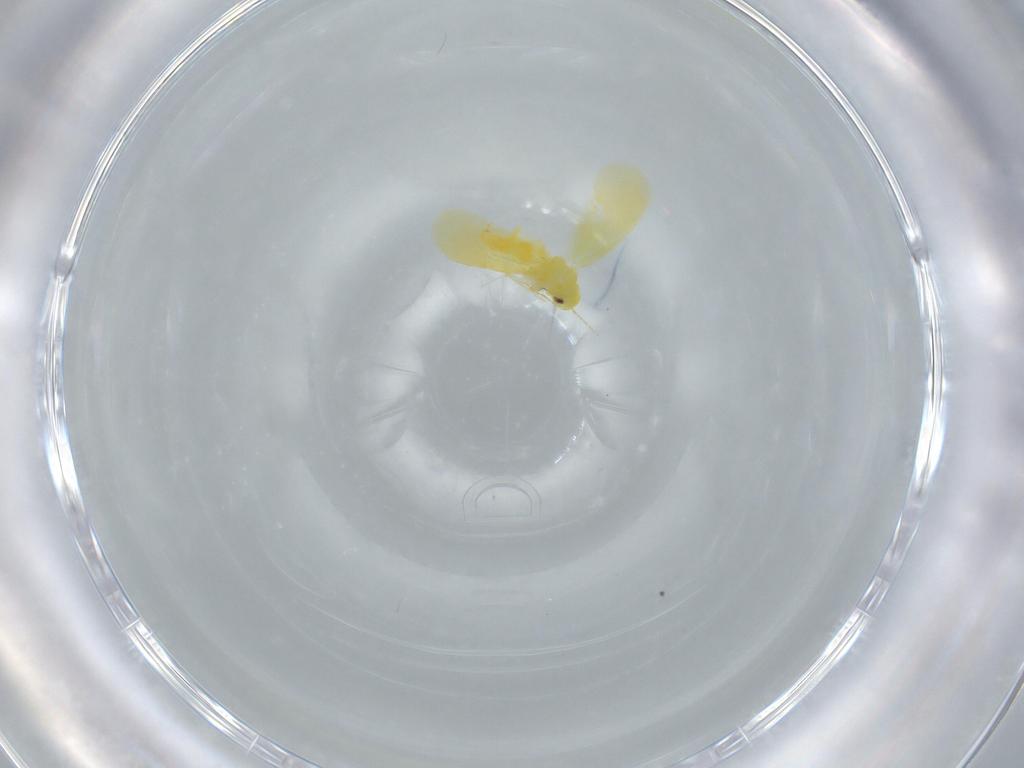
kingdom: Animalia
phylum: Arthropoda
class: Insecta
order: Hemiptera
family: Aleyrodidae
